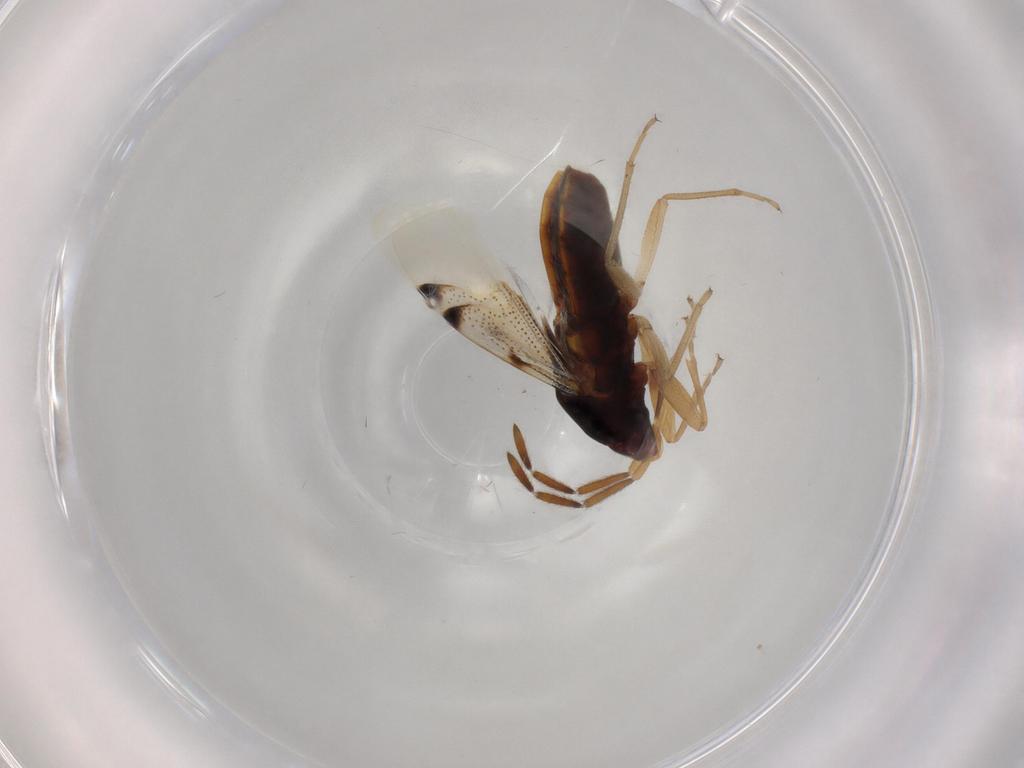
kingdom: Animalia
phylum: Arthropoda
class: Insecta
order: Hemiptera
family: Rhyparochromidae
